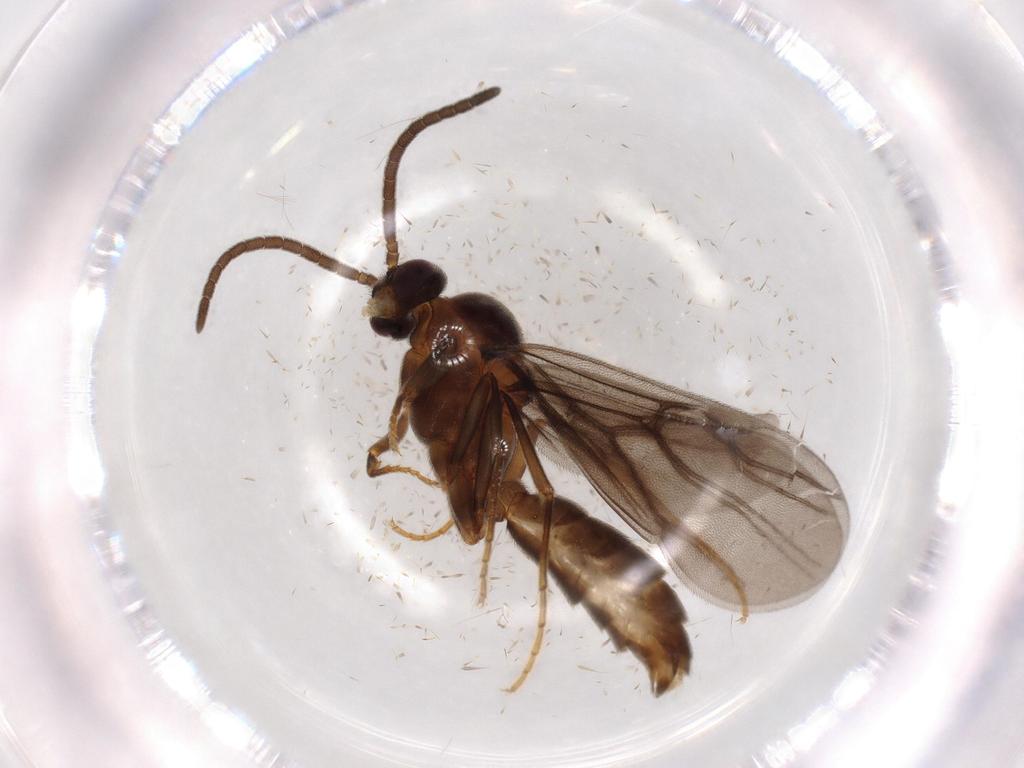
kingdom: Animalia
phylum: Arthropoda
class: Insecta
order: Hymenoptera
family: Formicidae
